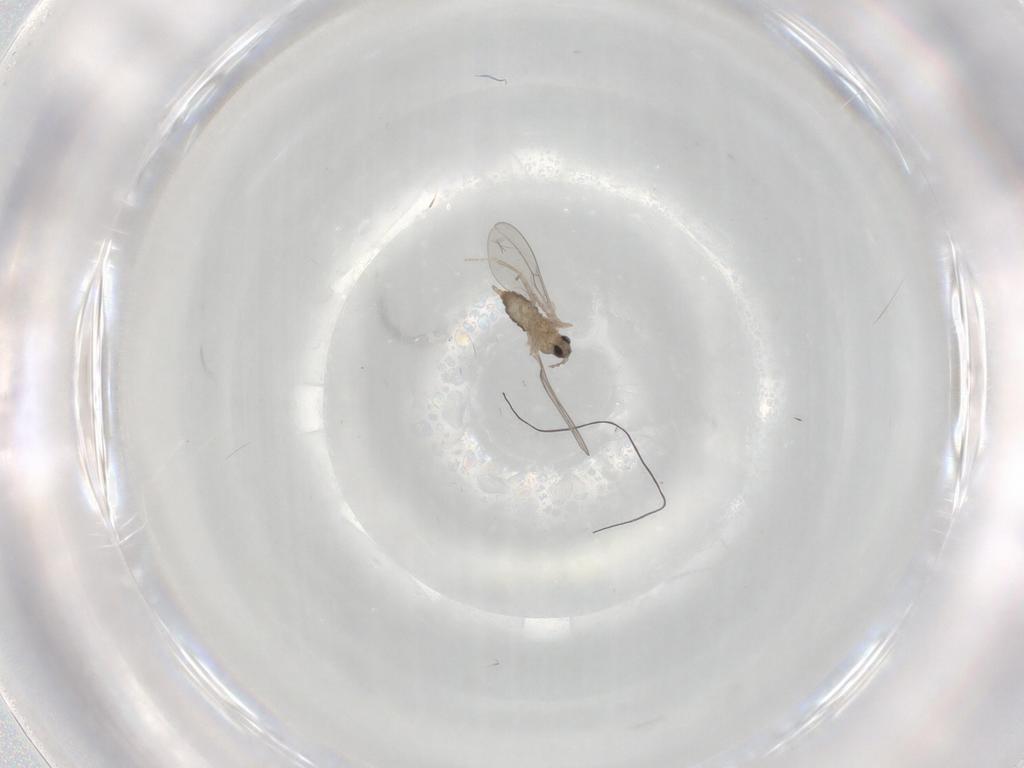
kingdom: Animalia
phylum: Arthropoda
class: Insecta
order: Diptera
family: Cecidomyiidae
